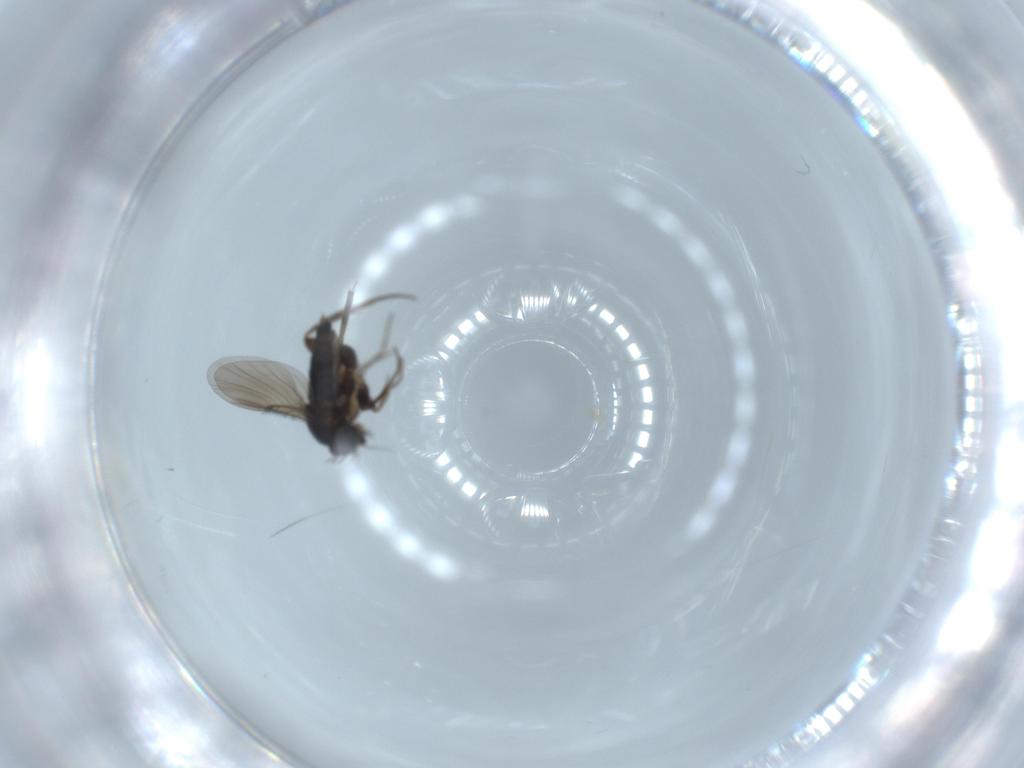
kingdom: Animalia
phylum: Arthropoda
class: Insecta
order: Diptera
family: Phoridae
